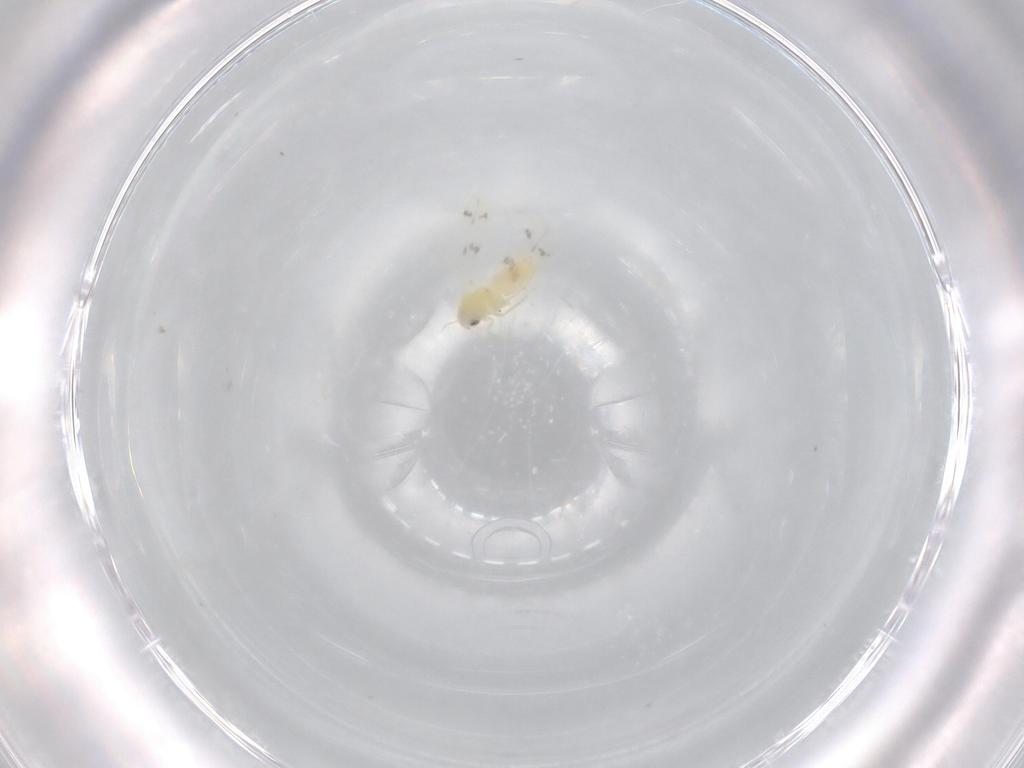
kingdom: Animalia
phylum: Arthropoda
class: Insecta
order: Hemiptera
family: Aleyrodidae
